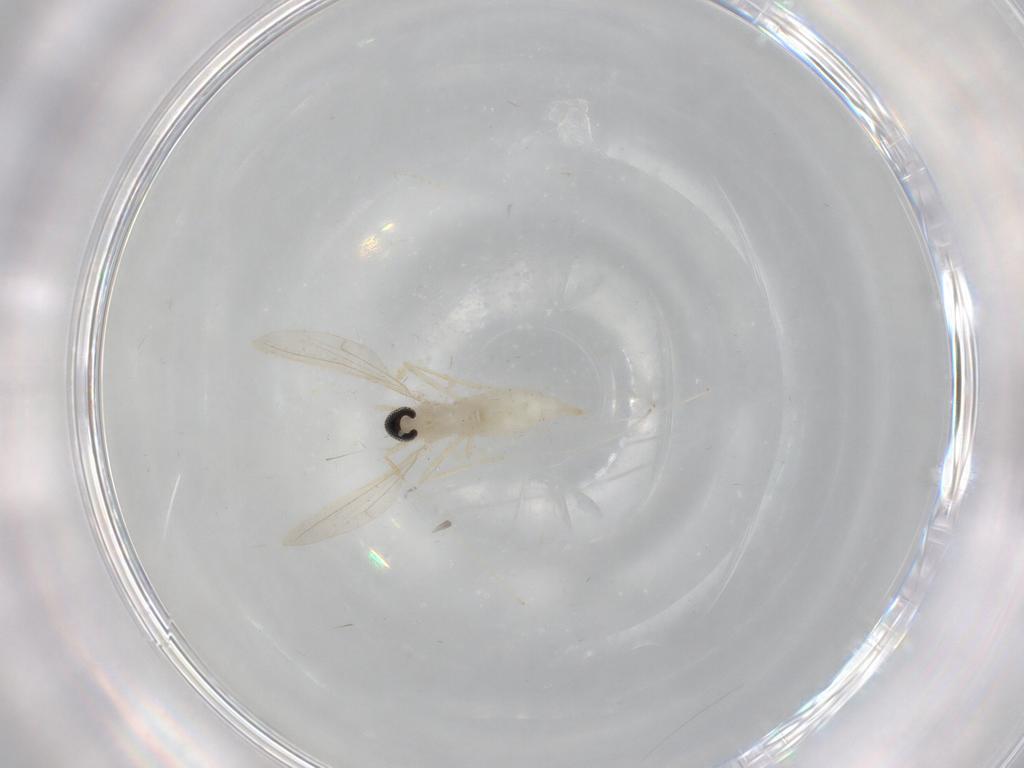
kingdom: Animalia
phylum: Arthropoda
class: Insecta
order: Diptera
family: Cecidomyiidae
